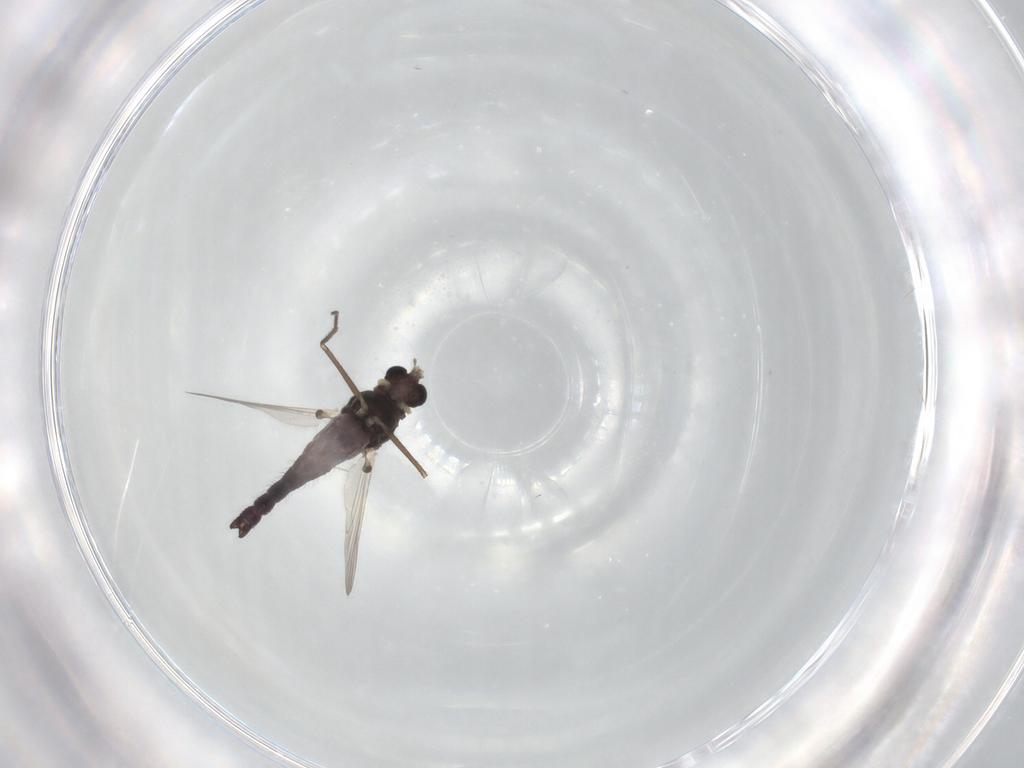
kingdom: Animalia
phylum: Arthropoda
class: Insecta
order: Diptera
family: Chironomidae
